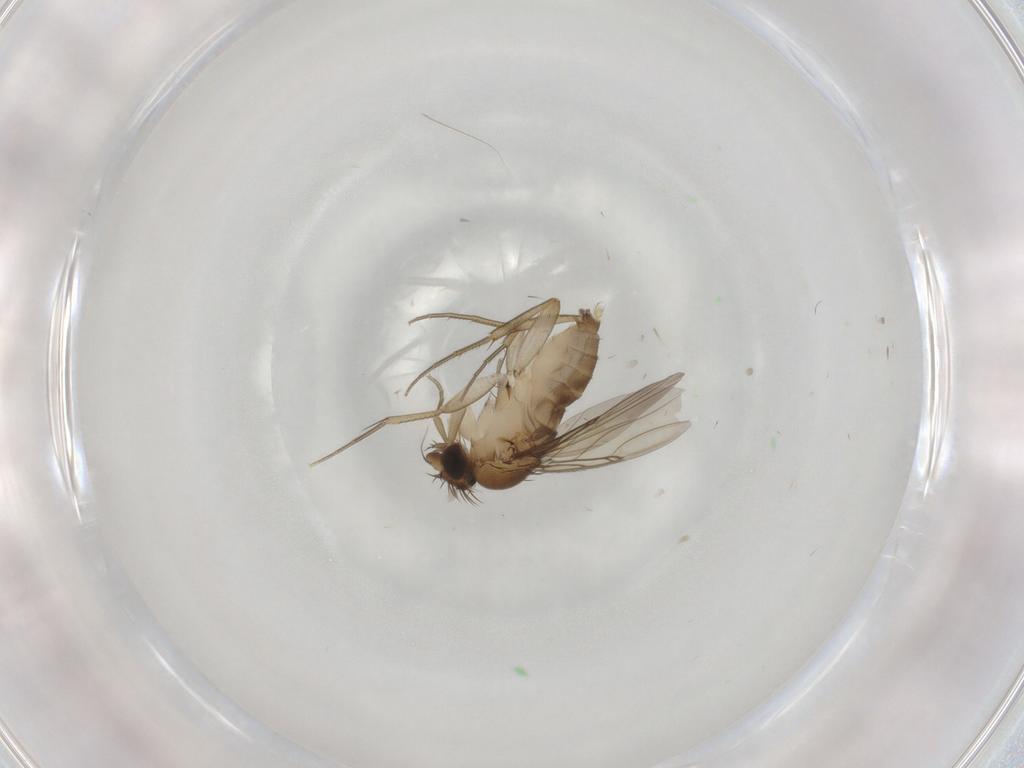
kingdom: Animalia
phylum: Arthropoda
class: Insecta
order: Diptera
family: Phoridae
